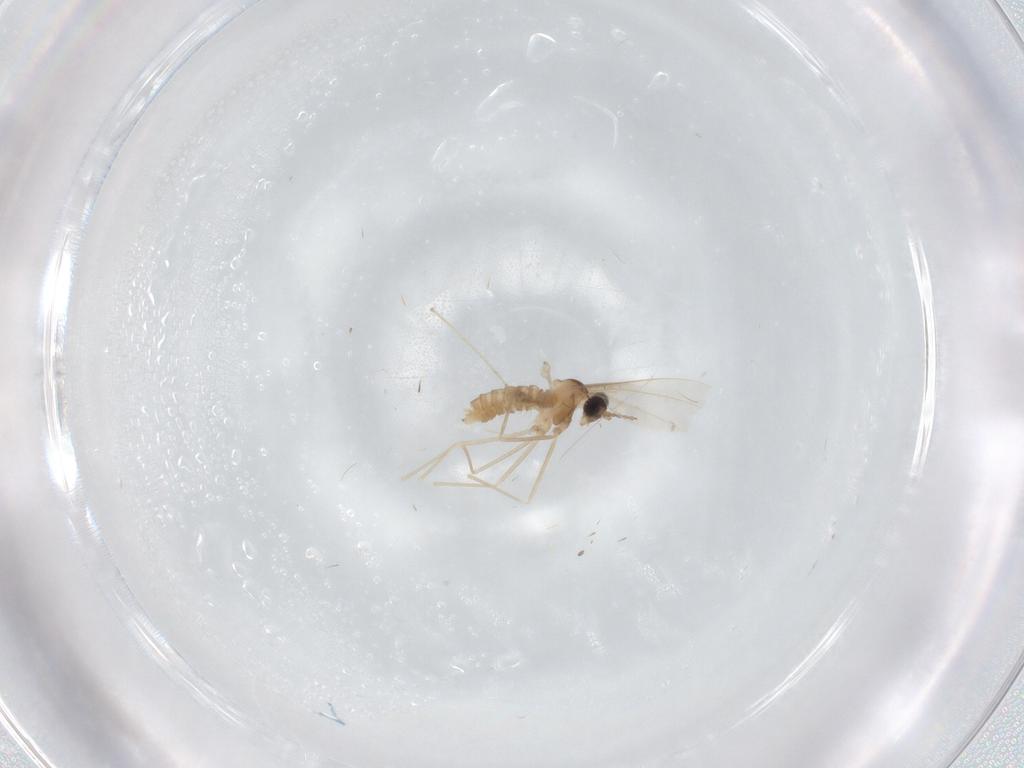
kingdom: Animalia
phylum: Arthropoda
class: Insecta
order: Diptera
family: Cecidomyiidae
